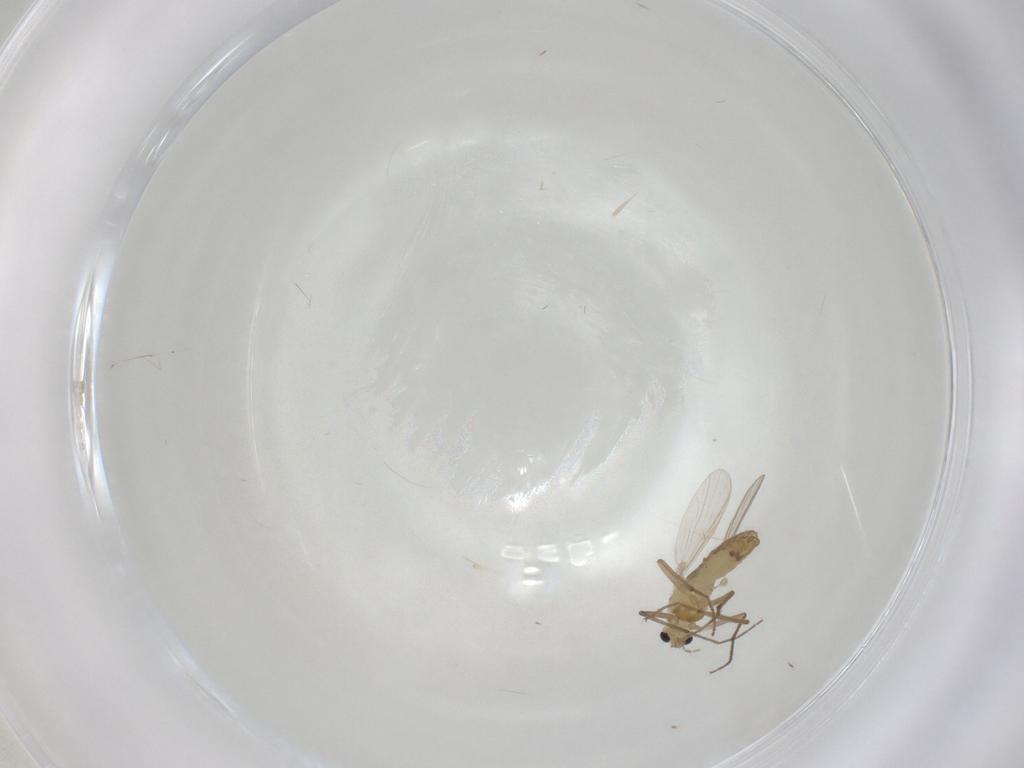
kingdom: Animalia
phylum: Arthropoda
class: Insecta
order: Diptera
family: Chironomidae
